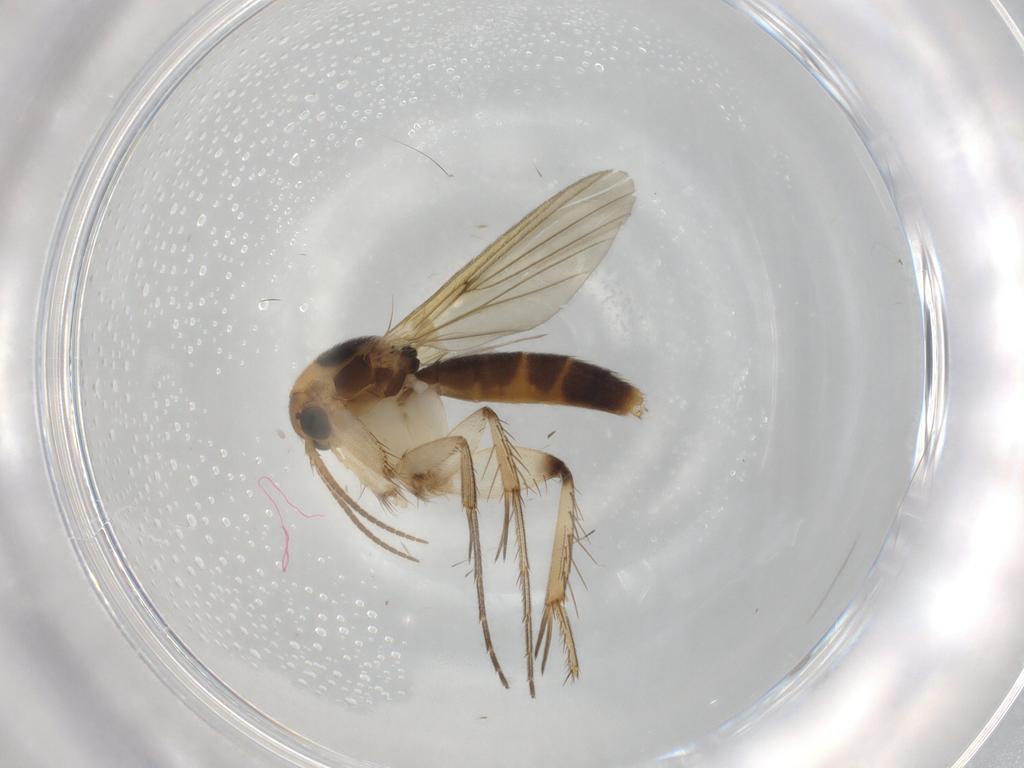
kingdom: Animalia
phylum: Arthropoda
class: Insecta
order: Diptera
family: Mycetophilidae
